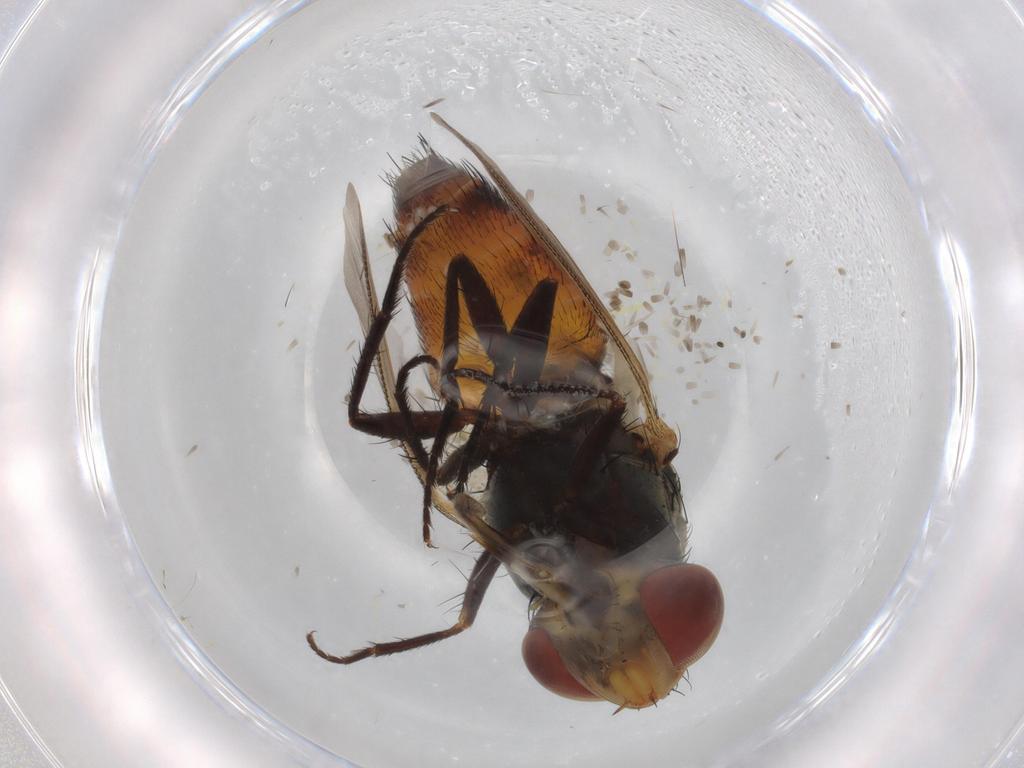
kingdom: Animalia
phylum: Arthropoda
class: Insecta
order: Diptera
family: Sarcophagidae
